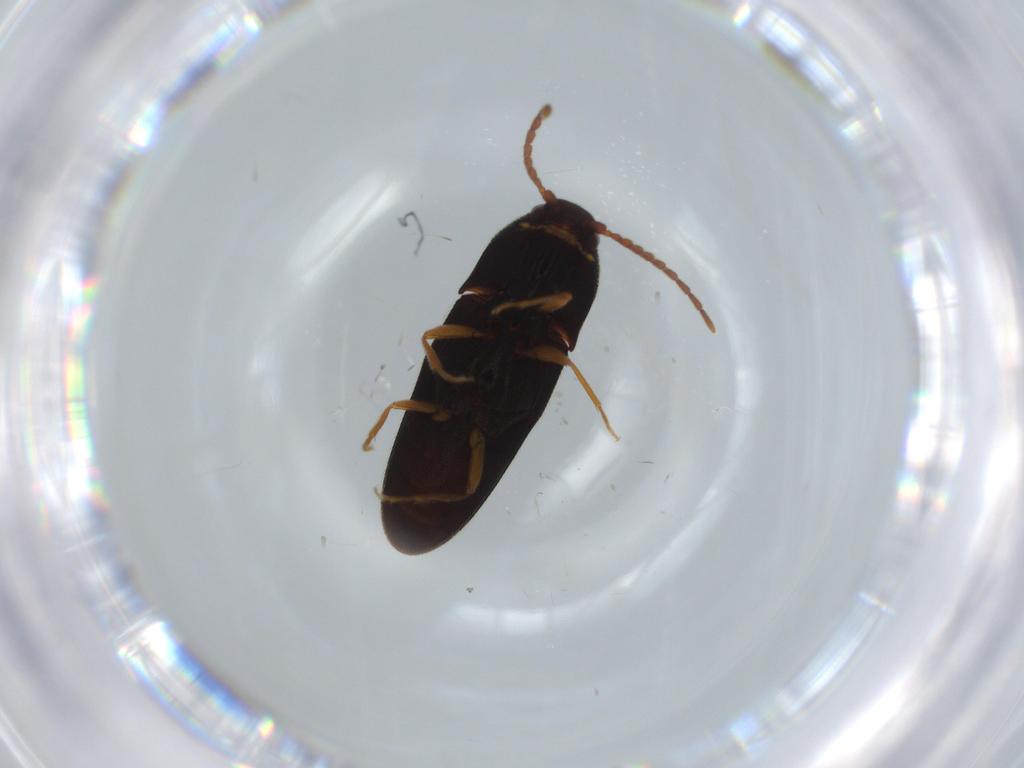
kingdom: Animalia
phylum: Arthropoda
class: Insecta
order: Coleoptera
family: Elateridae
